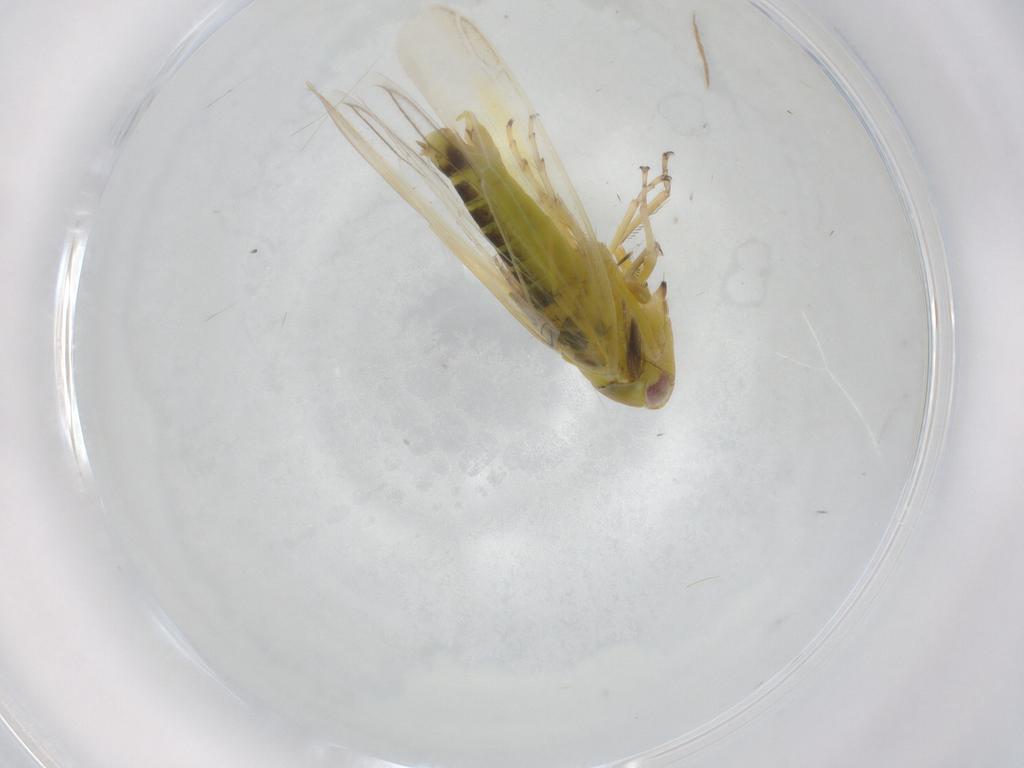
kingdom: Animalia
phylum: Arthropoda
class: Insecta
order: Hemiptera
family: Cicadellidae
